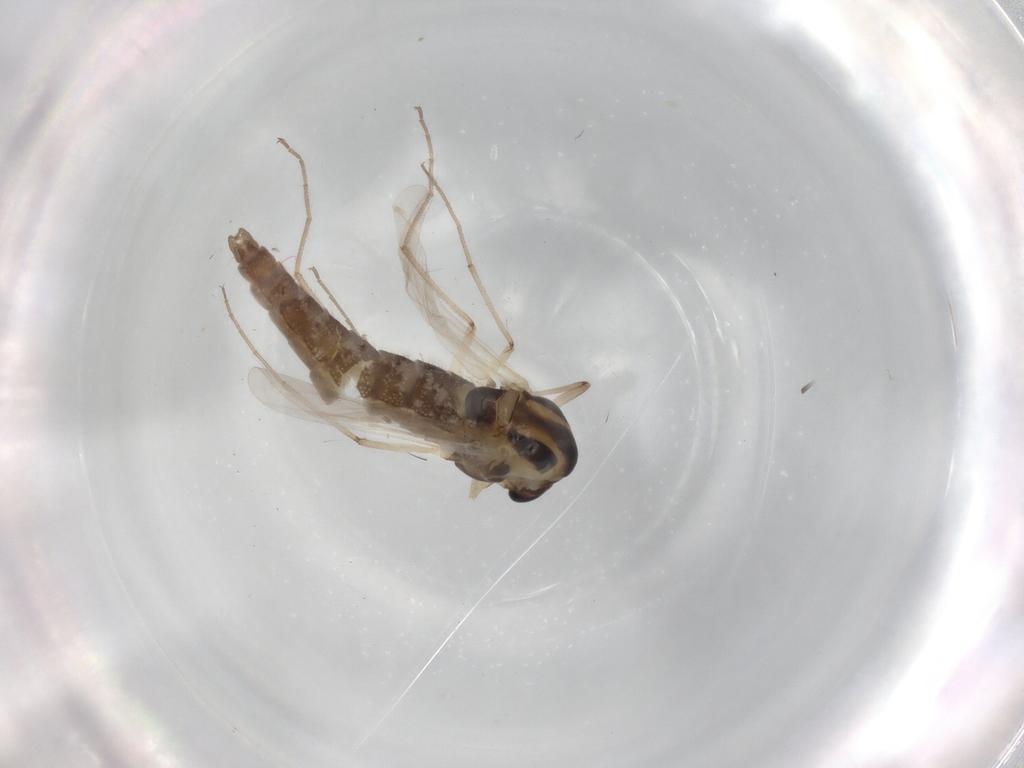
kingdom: Animalia
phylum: Arthropoda
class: Insecta
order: Diptera
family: Chironomidae
